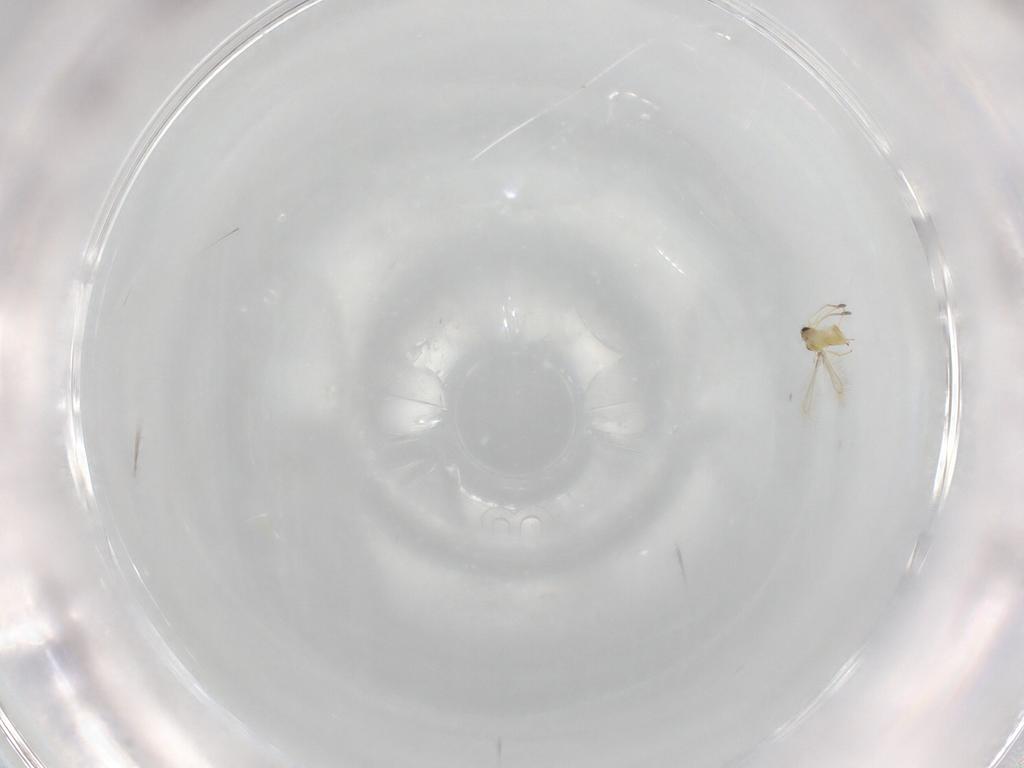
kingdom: Animalia
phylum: Arthropoda
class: Insecta
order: Hymenoptera
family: Mymaridae
